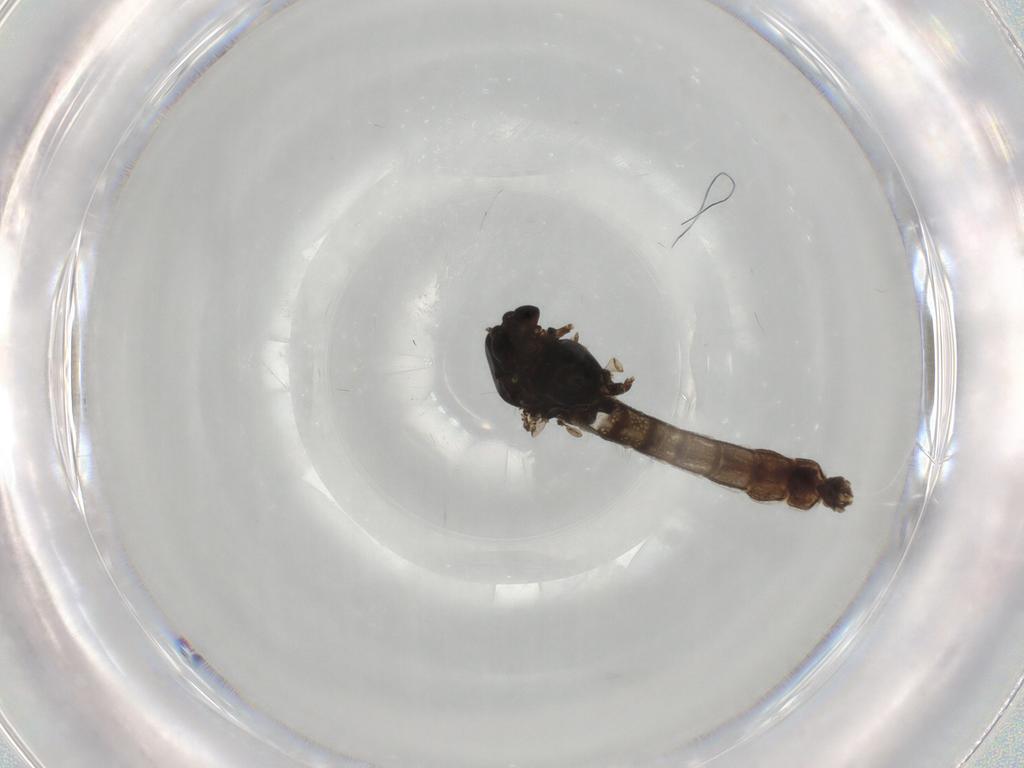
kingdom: Animalia
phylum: Arthropoda
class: Insecta
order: Diptera
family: Chironomidae
